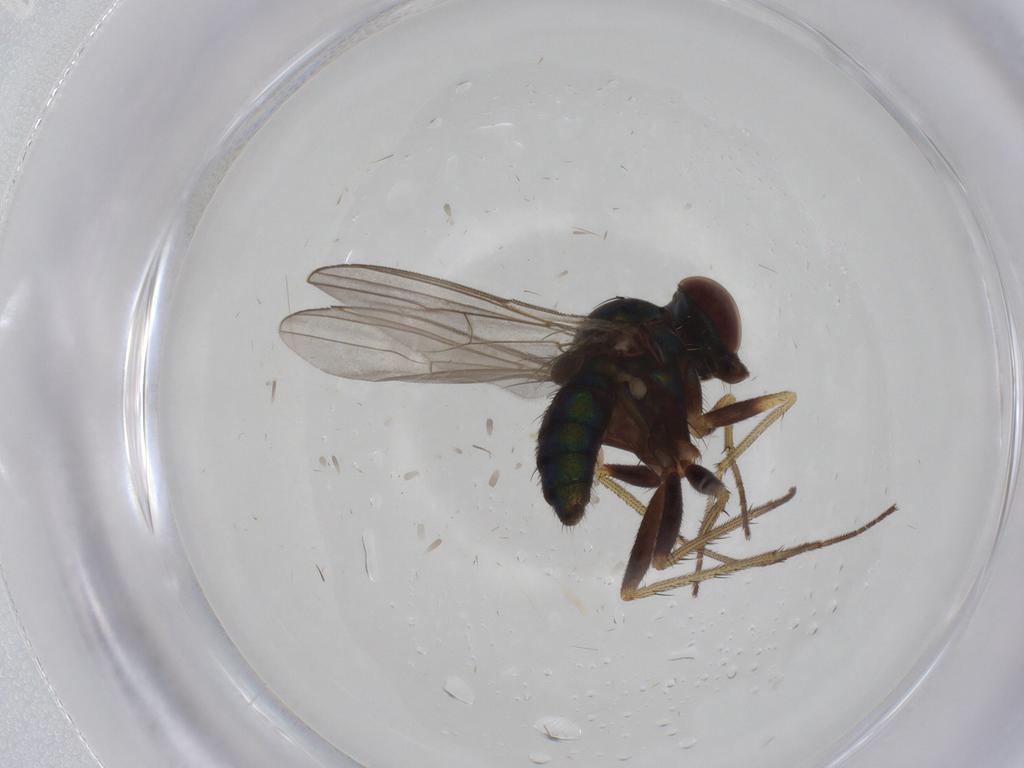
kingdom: Animalia
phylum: Arthropoda
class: Insecta
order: Diptera
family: Dolichopodidae
